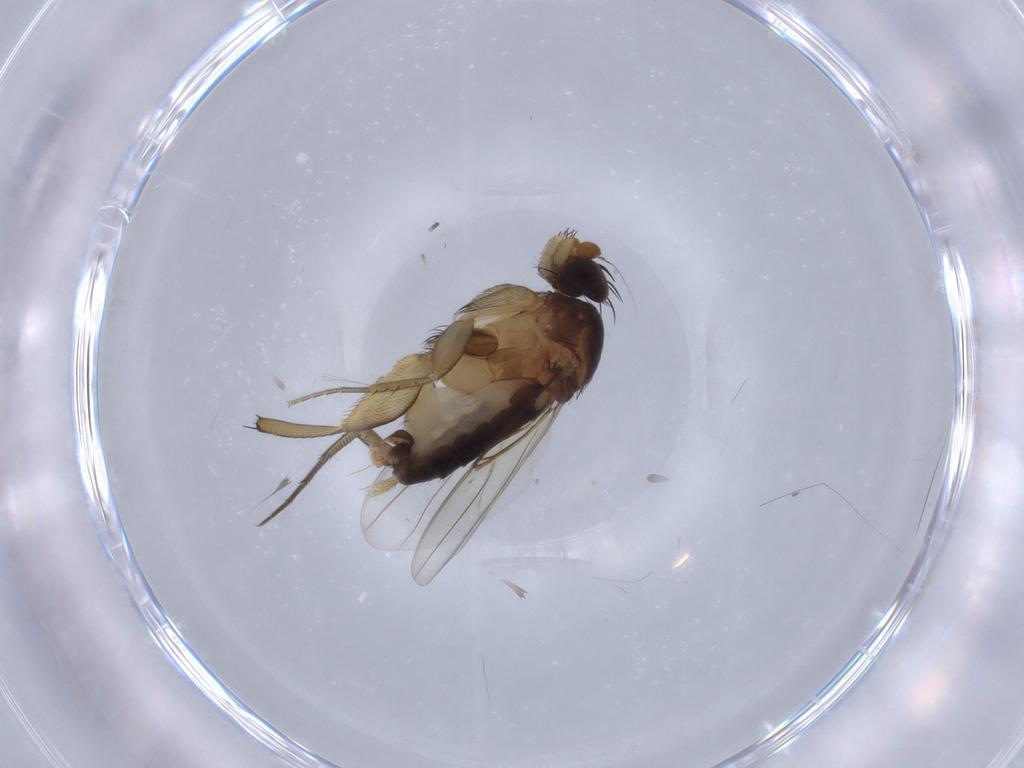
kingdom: Animalia
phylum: Arthropoda
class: Insecta
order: Diptera
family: Phoridae
